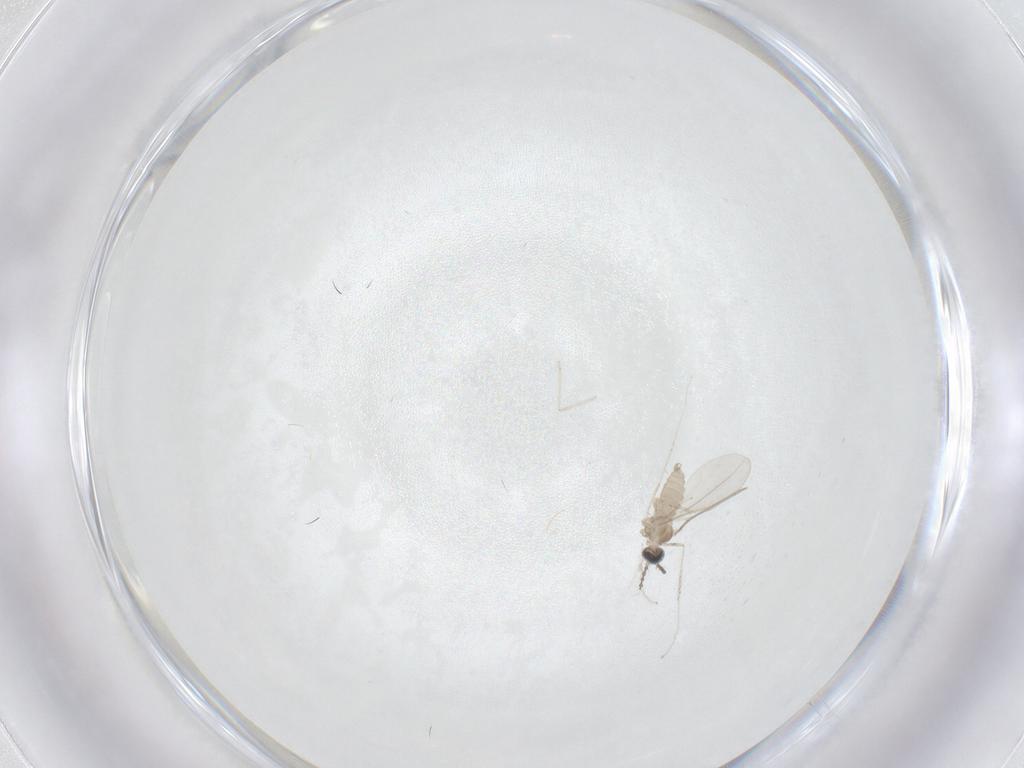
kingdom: Animalia
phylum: Arthropoda
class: Insecta
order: Diptera
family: Cecidomyiidae
